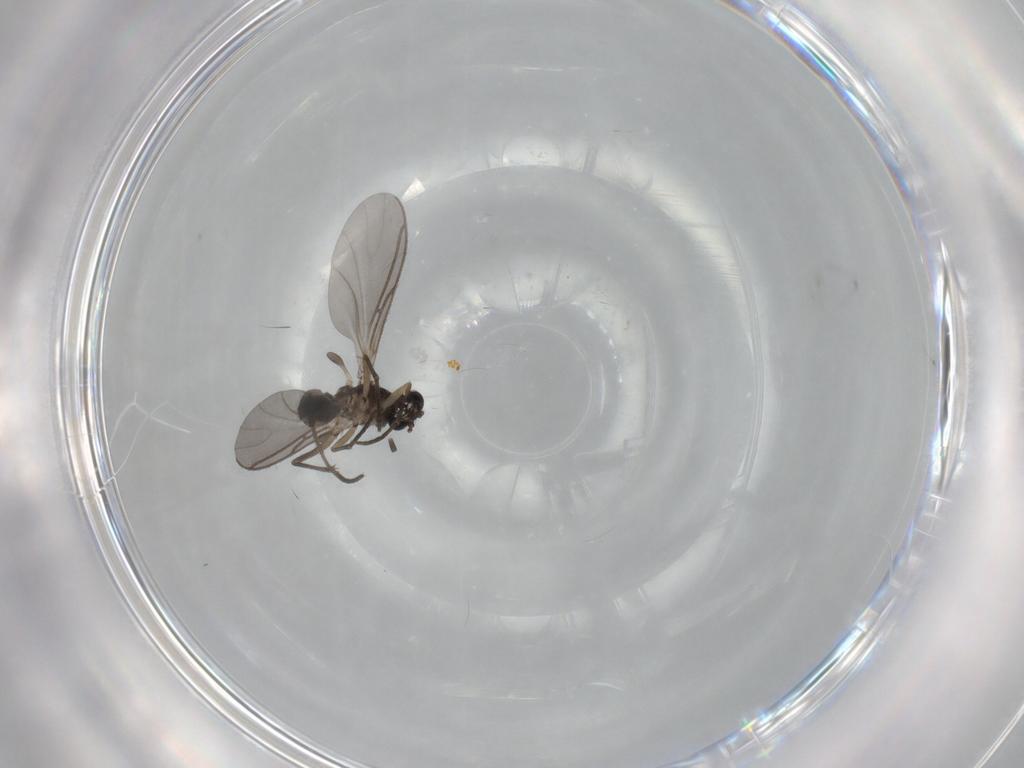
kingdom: Animalia
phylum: Arthropoda
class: Insecta
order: Diptera
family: Sciaridae
